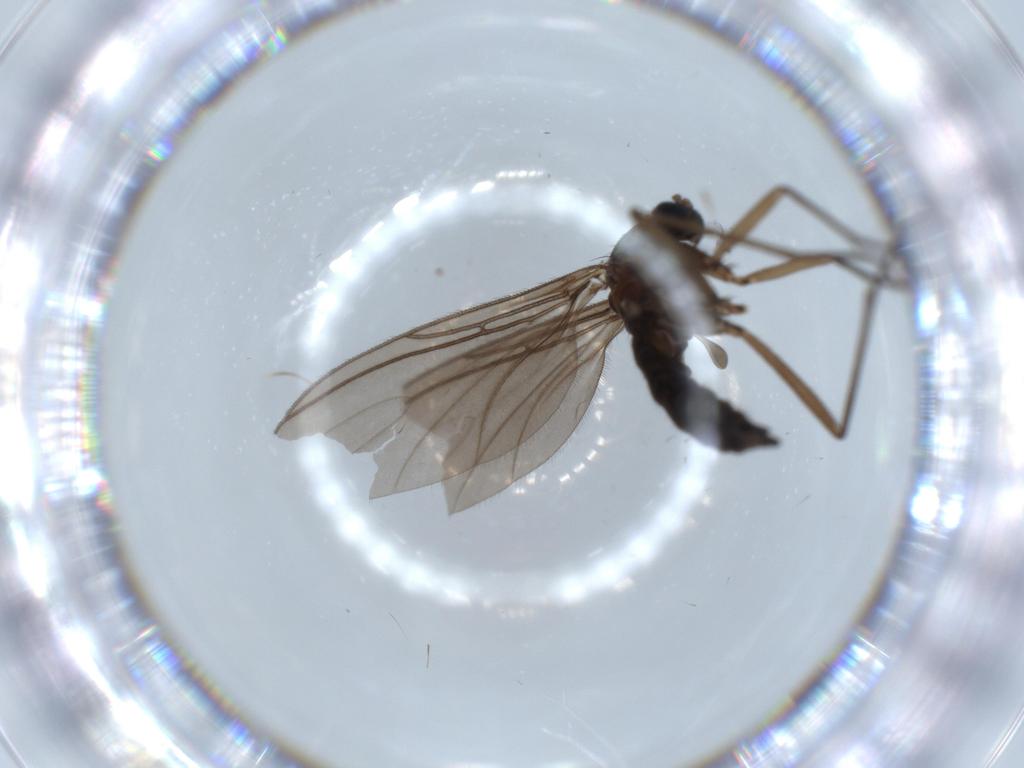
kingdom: Animalia
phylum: Arthropoda
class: Insecta
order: Diptera
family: Sciaridae
